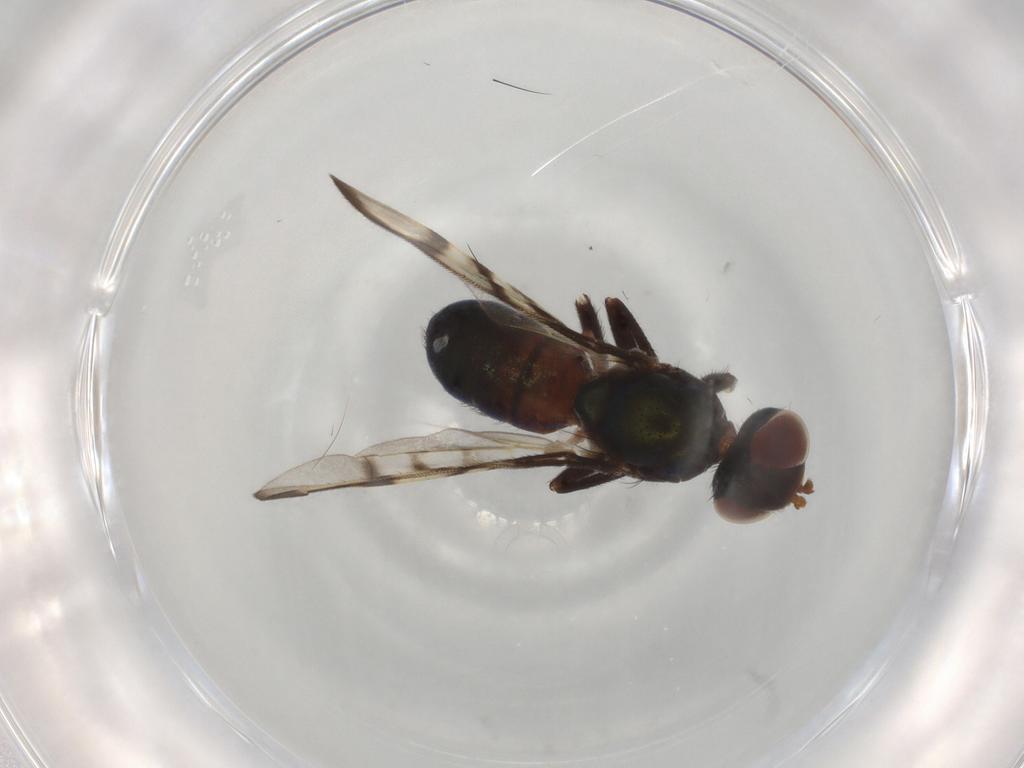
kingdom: Animalia
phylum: Arthropoda
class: Insecta
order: Diptera
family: Platystomatidae
